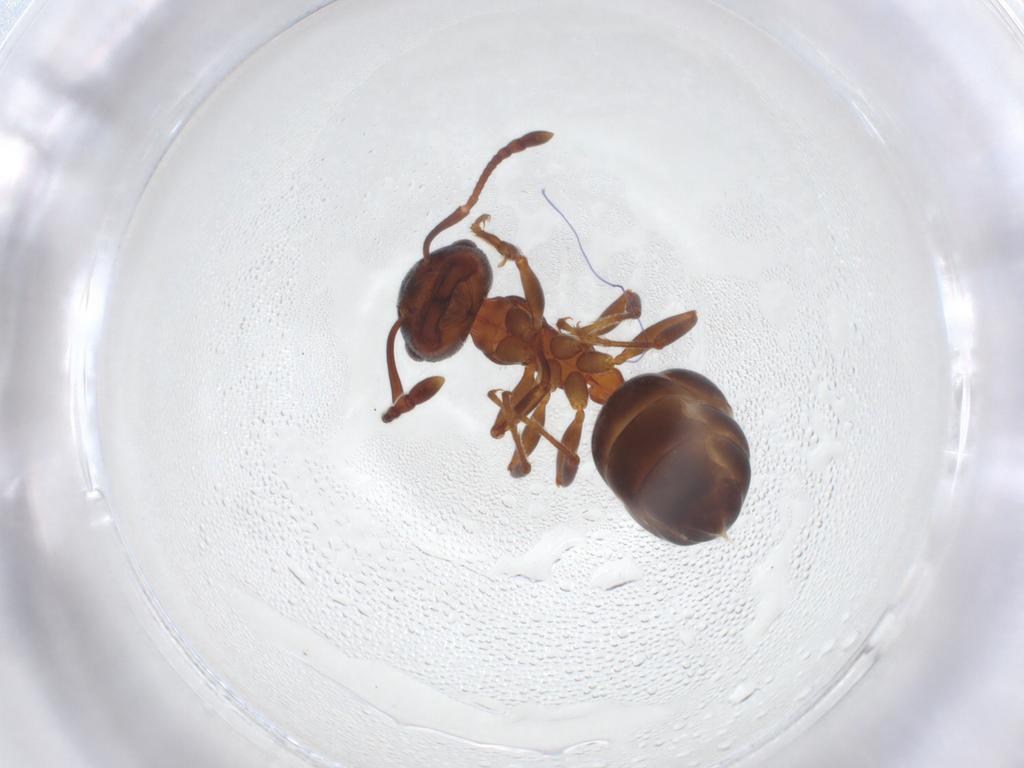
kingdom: Animalia
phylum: Arthropoda
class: Insecta
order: Hymenoptera
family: Formicidae
